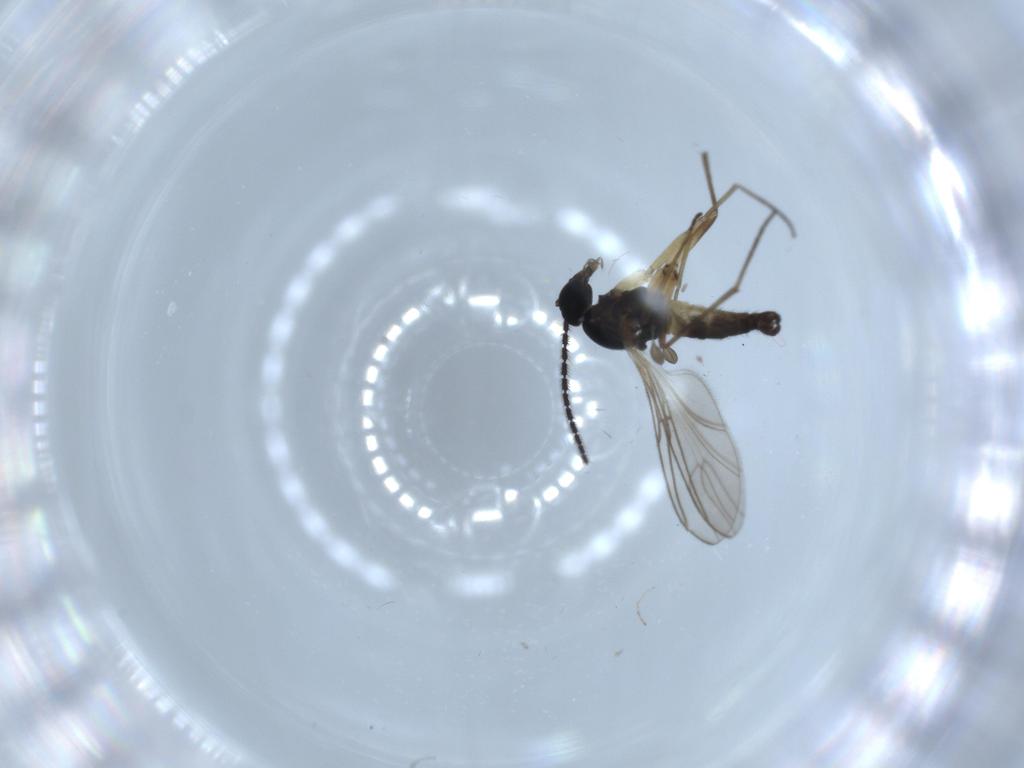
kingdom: Animalia
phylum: Arthropoda
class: Insecta
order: Diptera
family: Sciaridae
